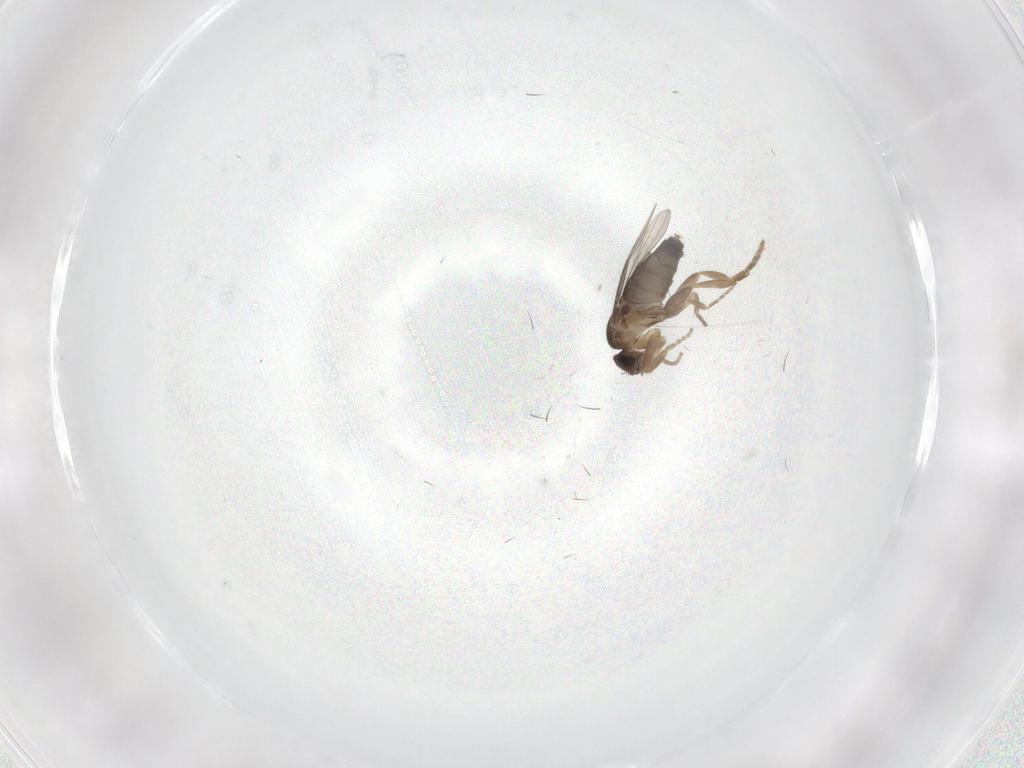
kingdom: Animalia
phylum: Arthropoda
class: Insecta
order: Diptera
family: Phoridae
